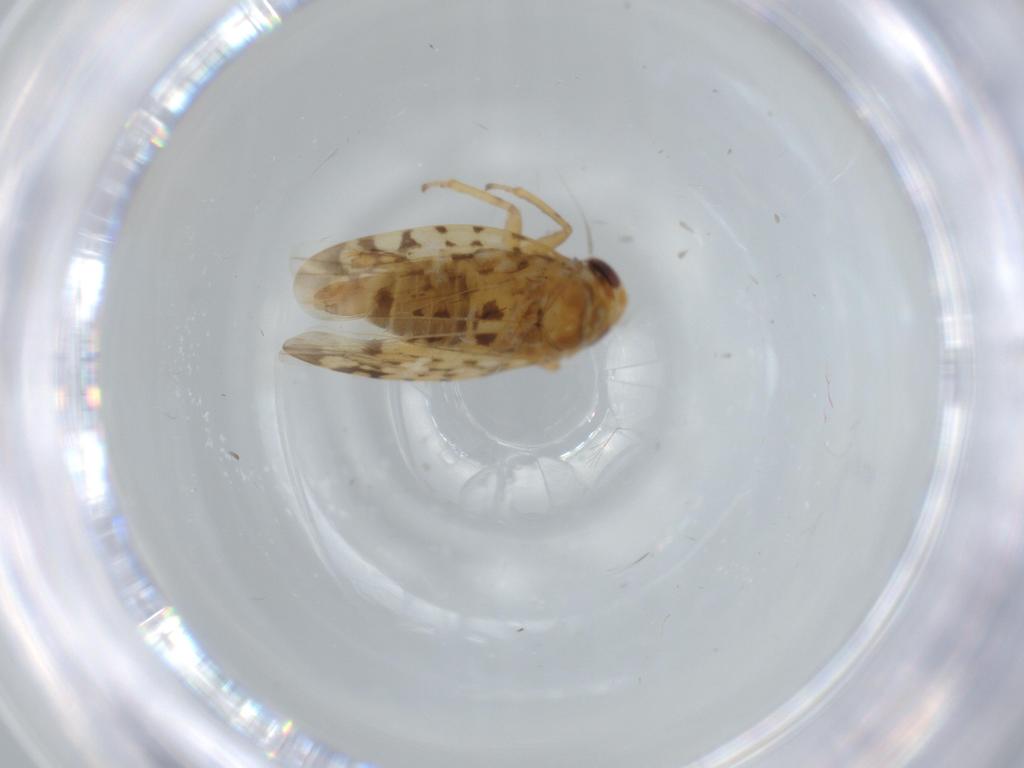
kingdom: Animalia
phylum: Arthropoda
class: Insecta
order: Hemiptera
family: Cicadellidae
